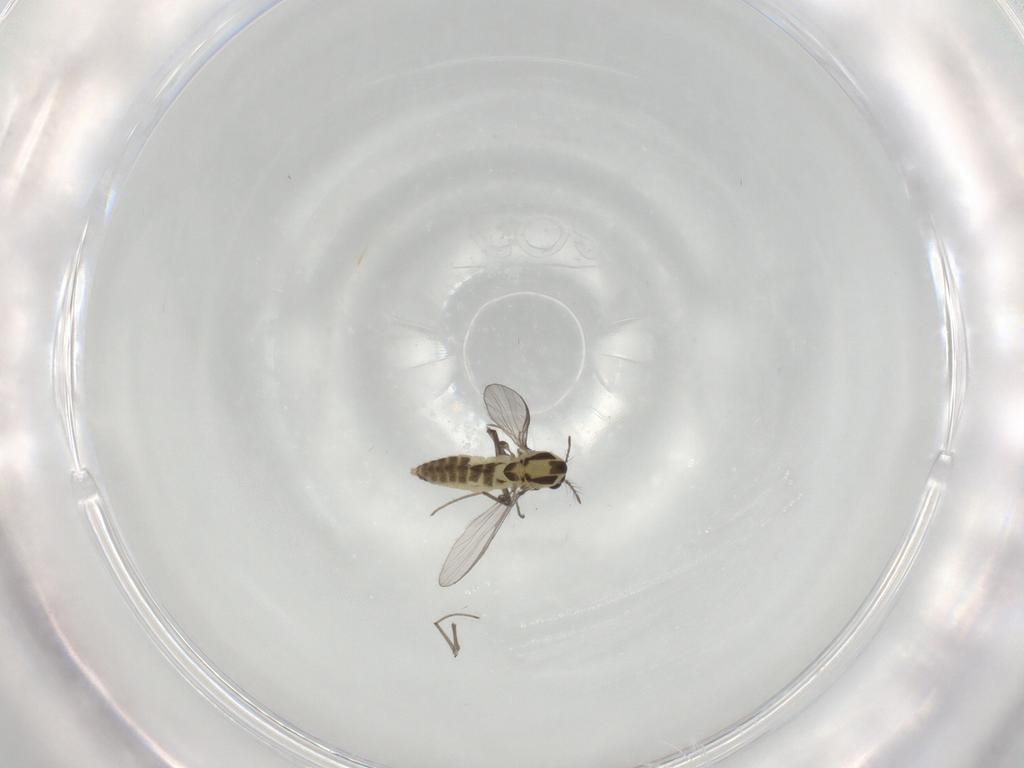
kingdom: Animalia
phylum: Arthropoda
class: Insecta
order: Diptera
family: Chironomidae
